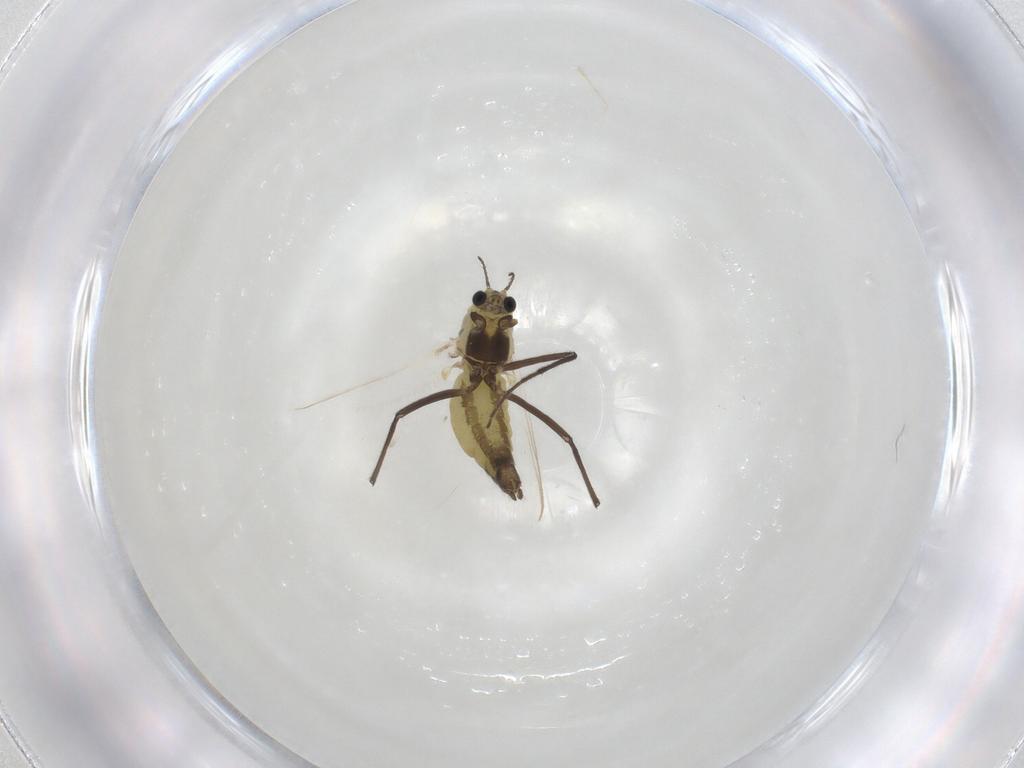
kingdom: Animalia
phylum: Arthropoda
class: Insecta
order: Diptera
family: Chironomidae
